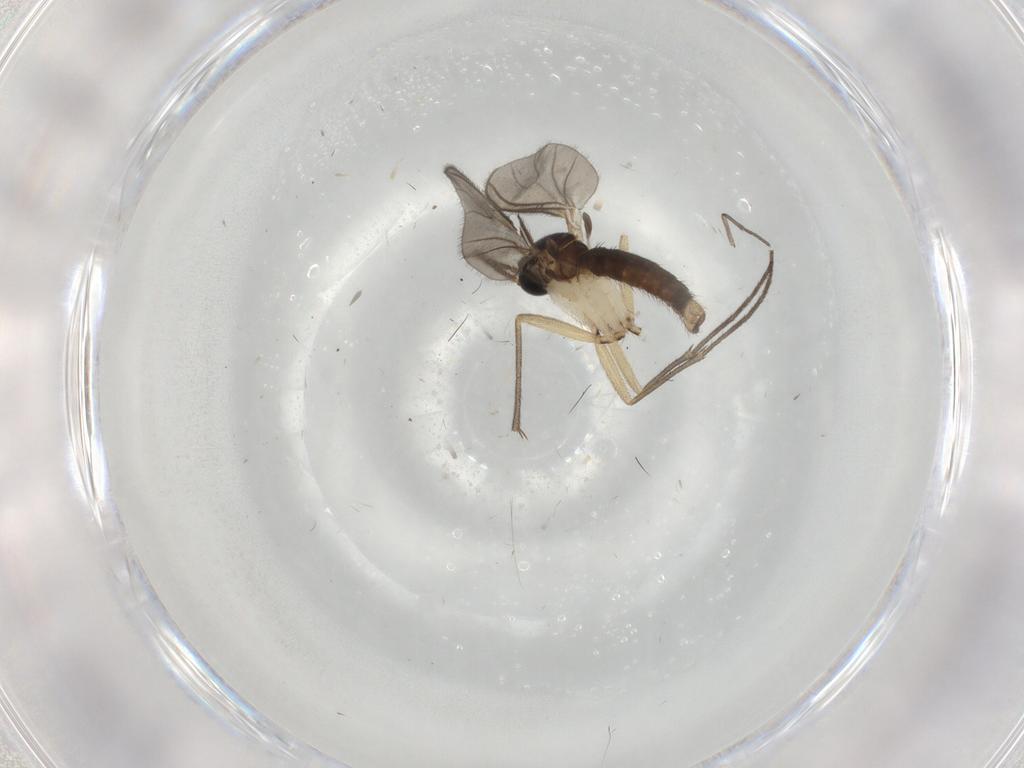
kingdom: Animalia
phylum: Arthropoda
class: Insecta
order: Diptera
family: Sciaridae
